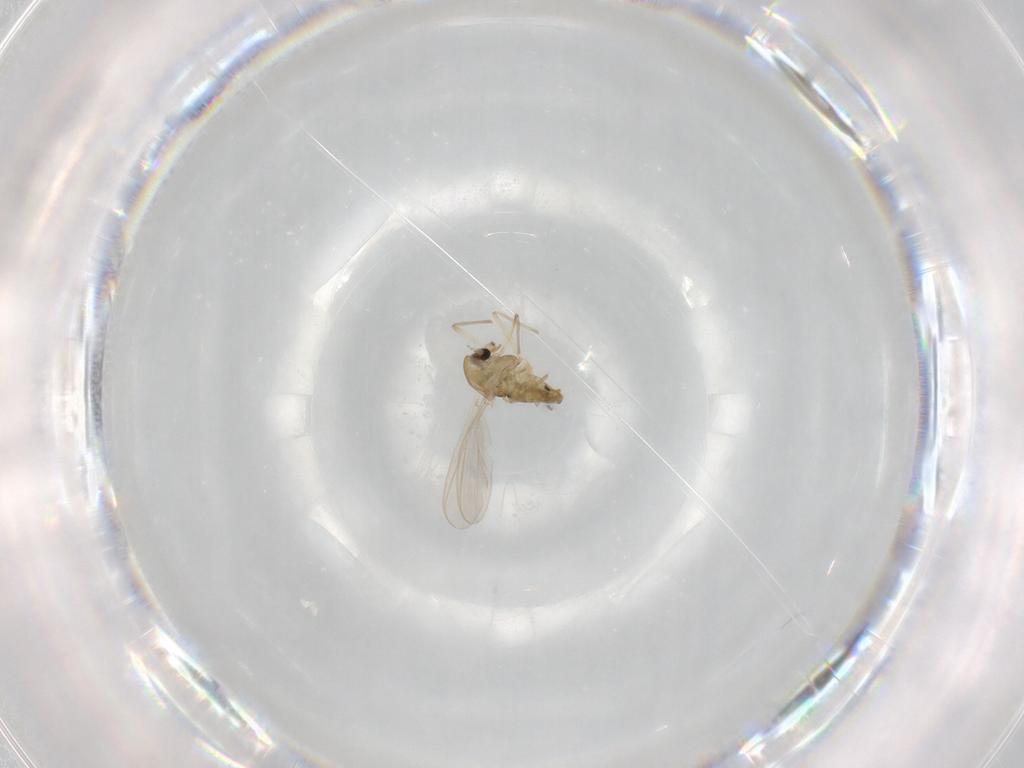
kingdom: Animalia
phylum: Arthropoda
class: Insecta
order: Diptera
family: Chironomidae
